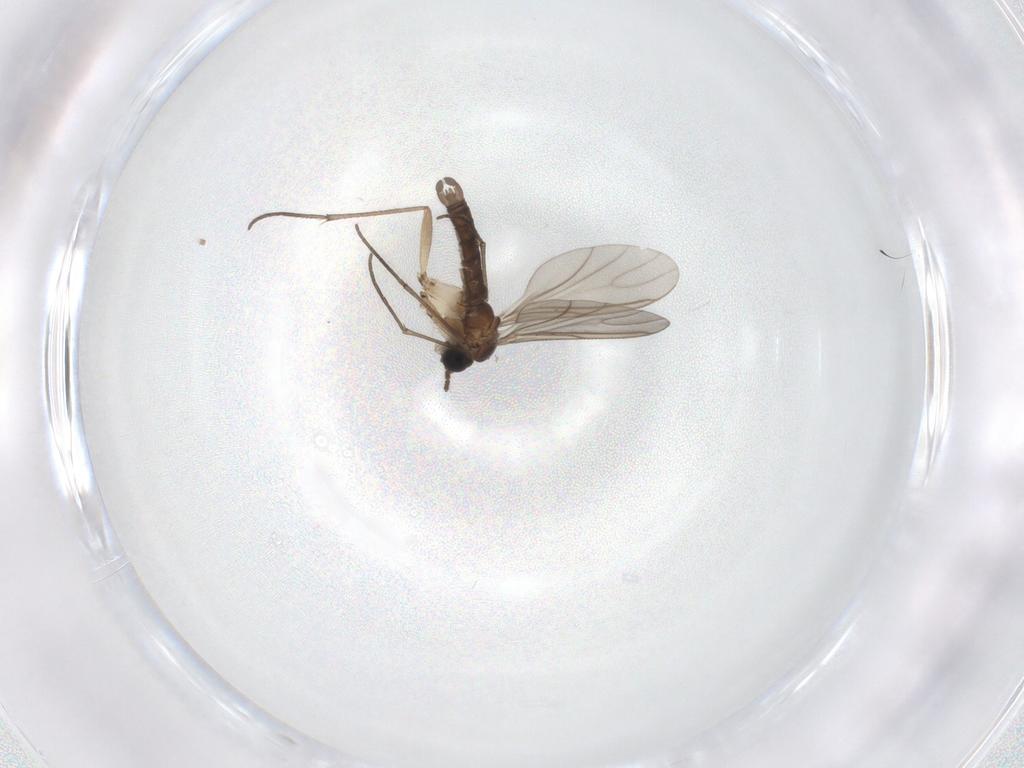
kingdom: Animalia
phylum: Arthropoda
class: Insecta
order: Diptera
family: Sciaridae
